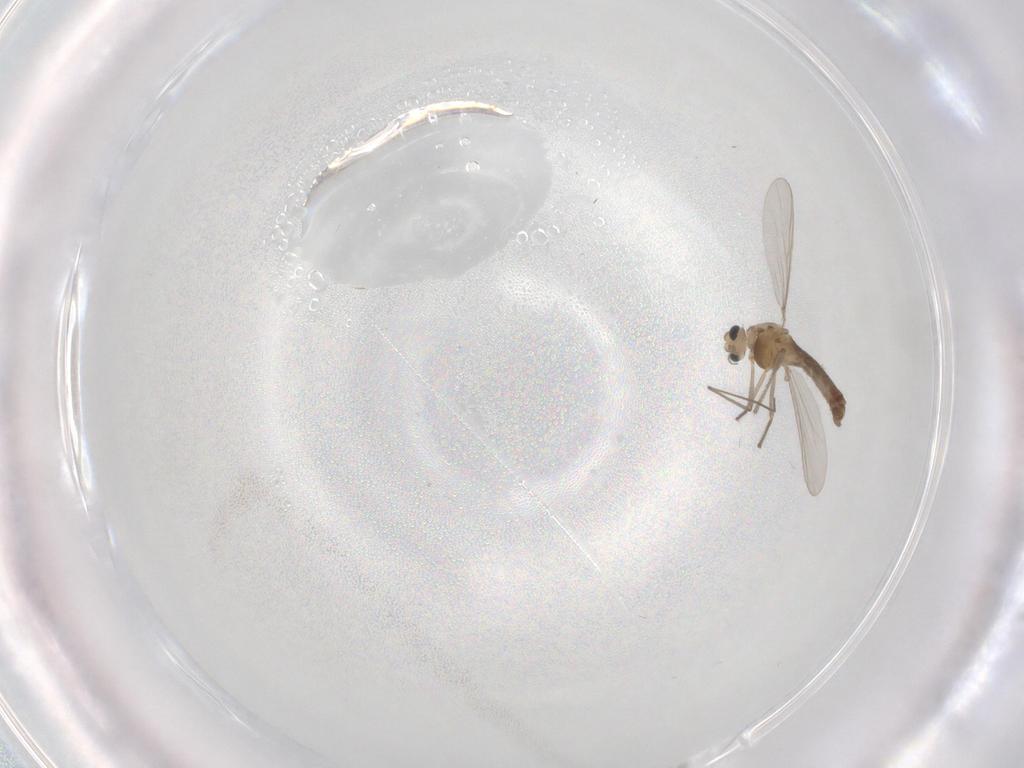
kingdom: Animalia
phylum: Arthropoda
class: Insecta
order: Diptera
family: Chironomidae
